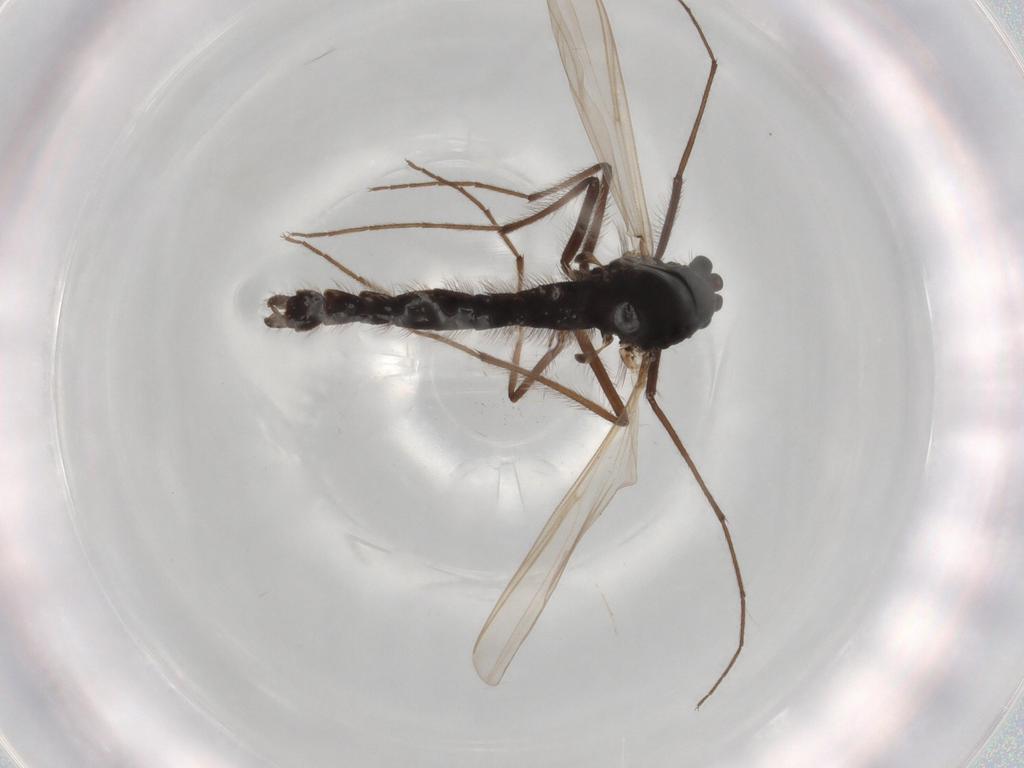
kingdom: Animalia
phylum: Arthropoda
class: Insecta
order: Diptera
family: Hybotidae
